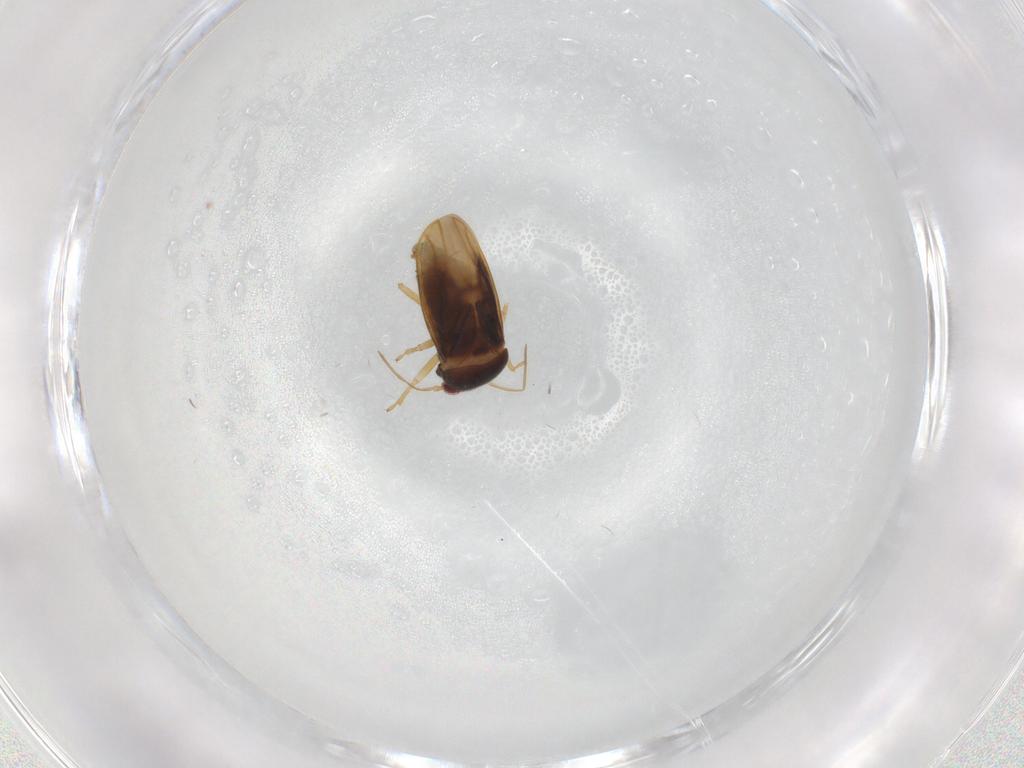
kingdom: Animalia
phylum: Arthropoda
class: Insecta
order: Hemiptera
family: Schizopteridae
